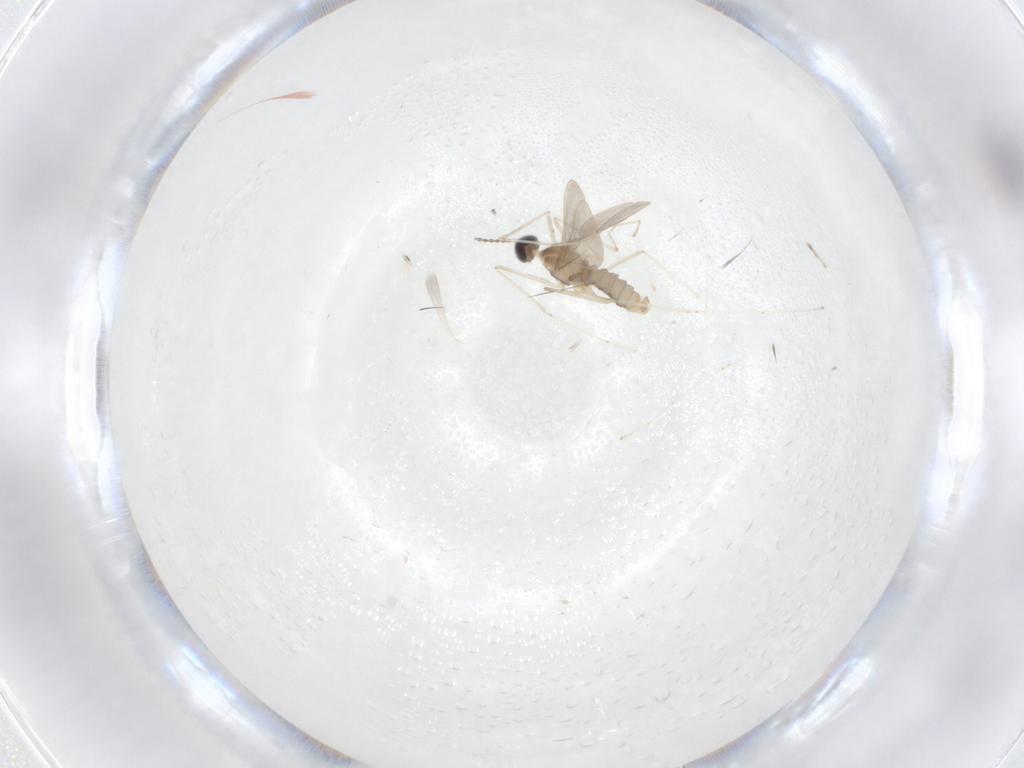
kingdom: Animalia
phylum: Arthropoda
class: Insecta
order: Diptera
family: Cecidomyiidae
